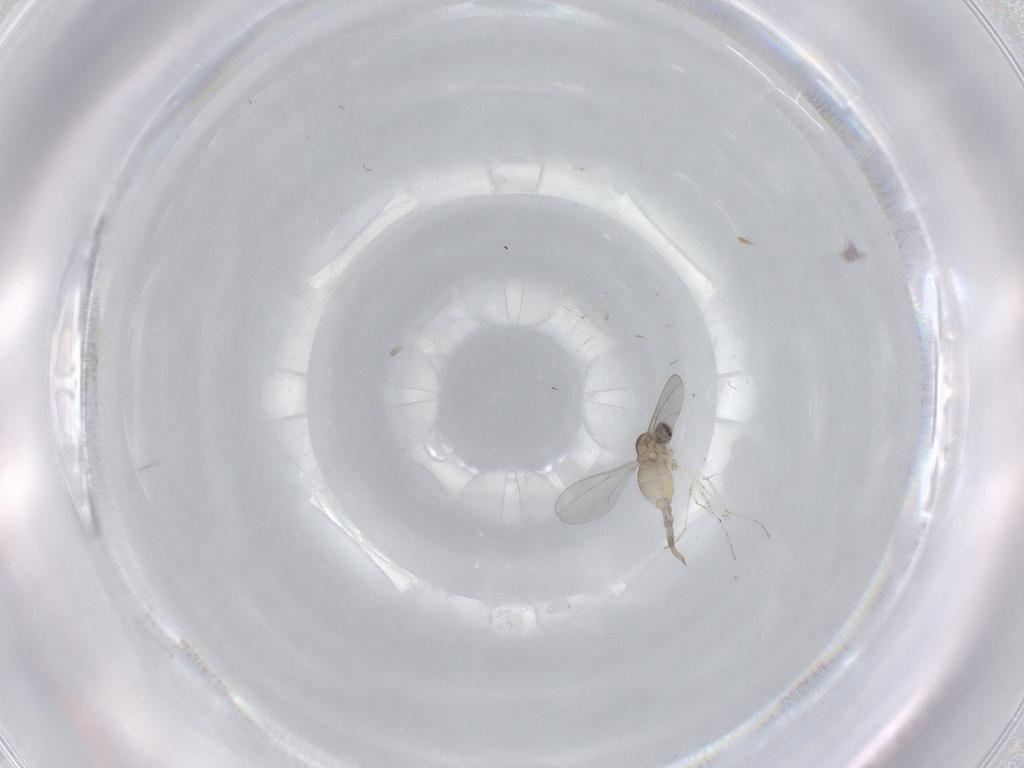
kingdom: Animalia
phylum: Arthropoda
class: Insecta
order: Diptera
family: Cecidomyiidae
